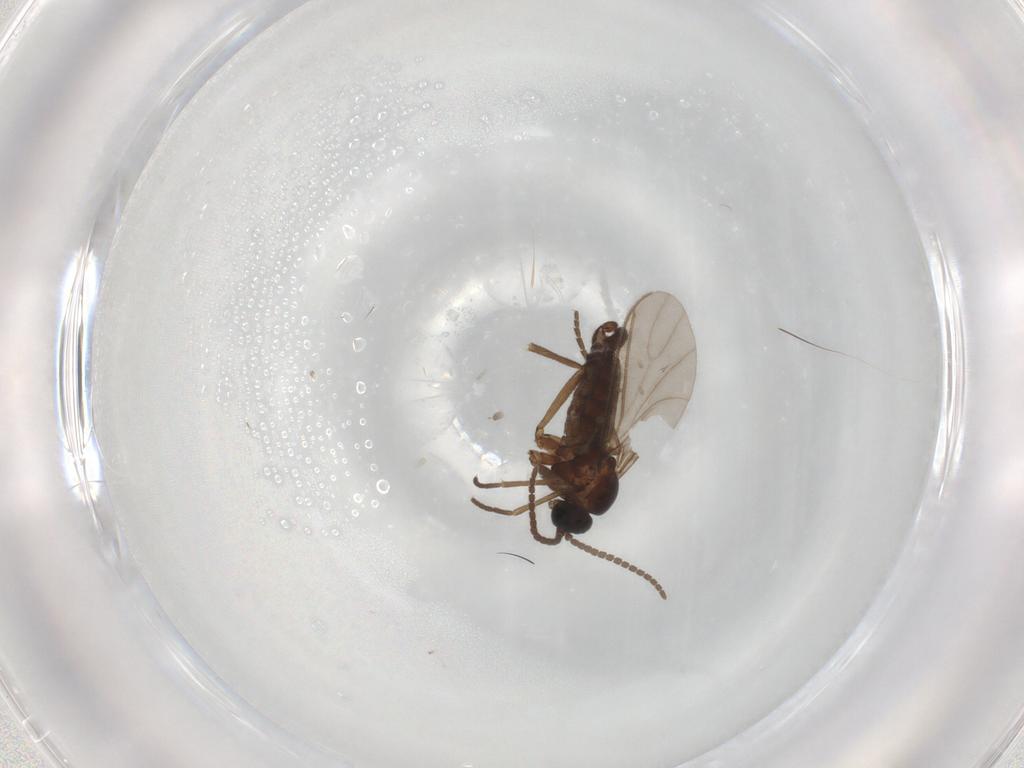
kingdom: Animalia
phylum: Arthropoda
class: Insecta
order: Diptera
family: Sciaridae
